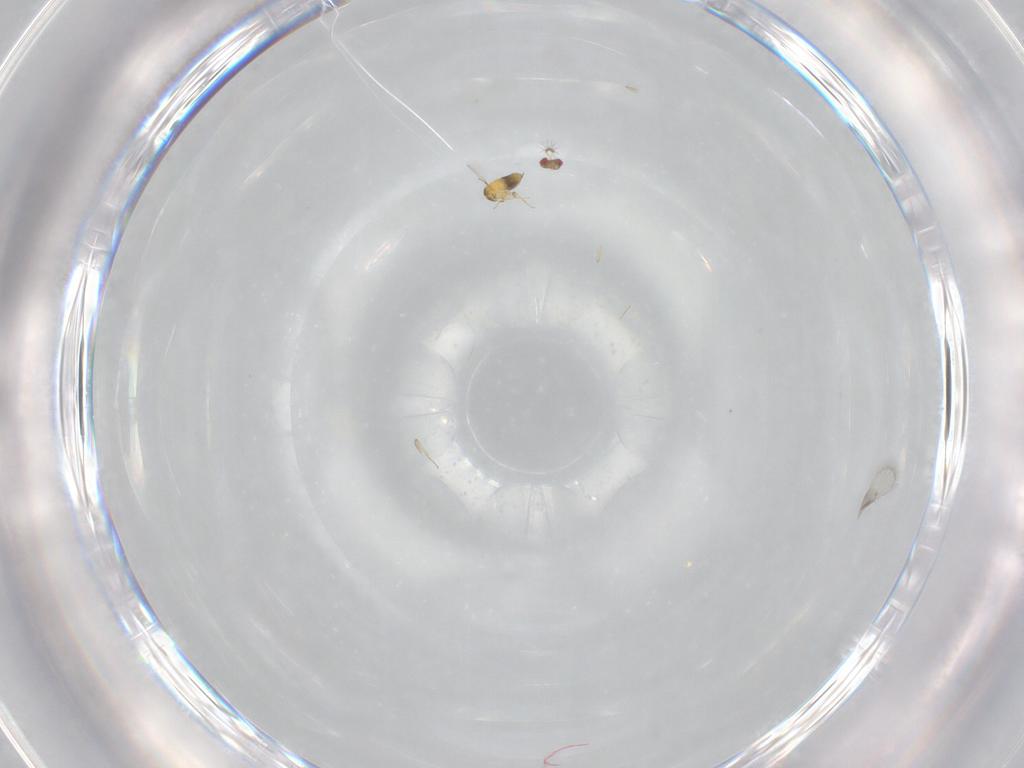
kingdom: Animalia
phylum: Arthropoda
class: Insecta
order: Hymenoptera
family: Trichogrammatidae
